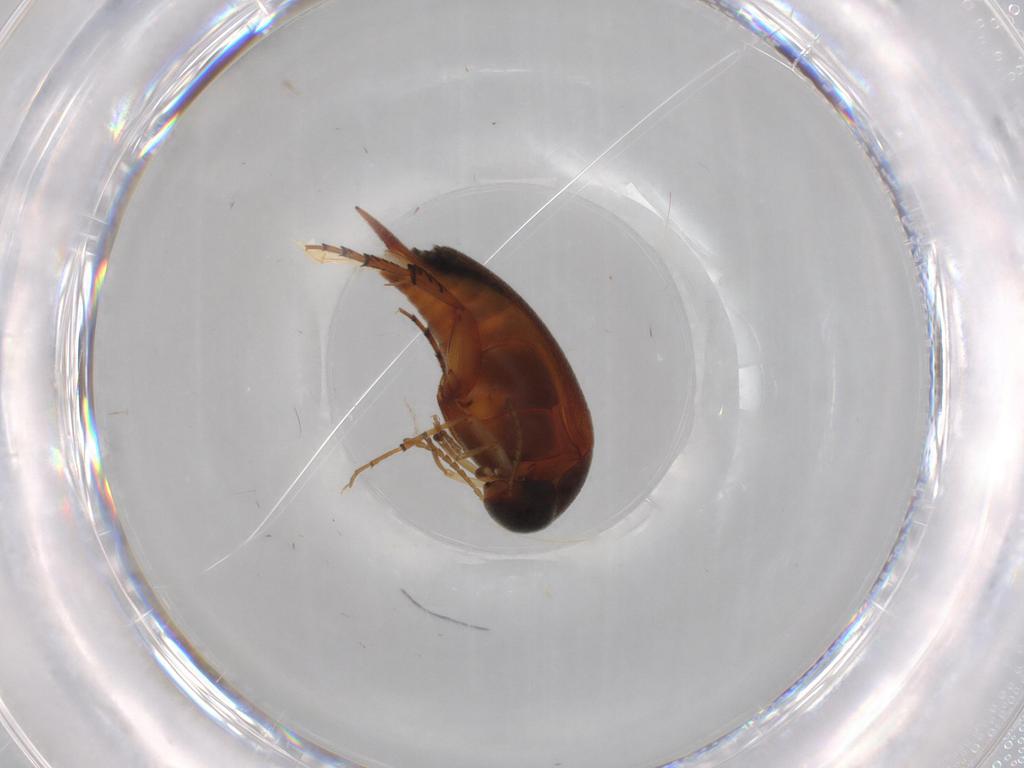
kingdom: Animalia
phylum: Arthropoda
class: Insecta
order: Coleoptera
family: Mordellidae
